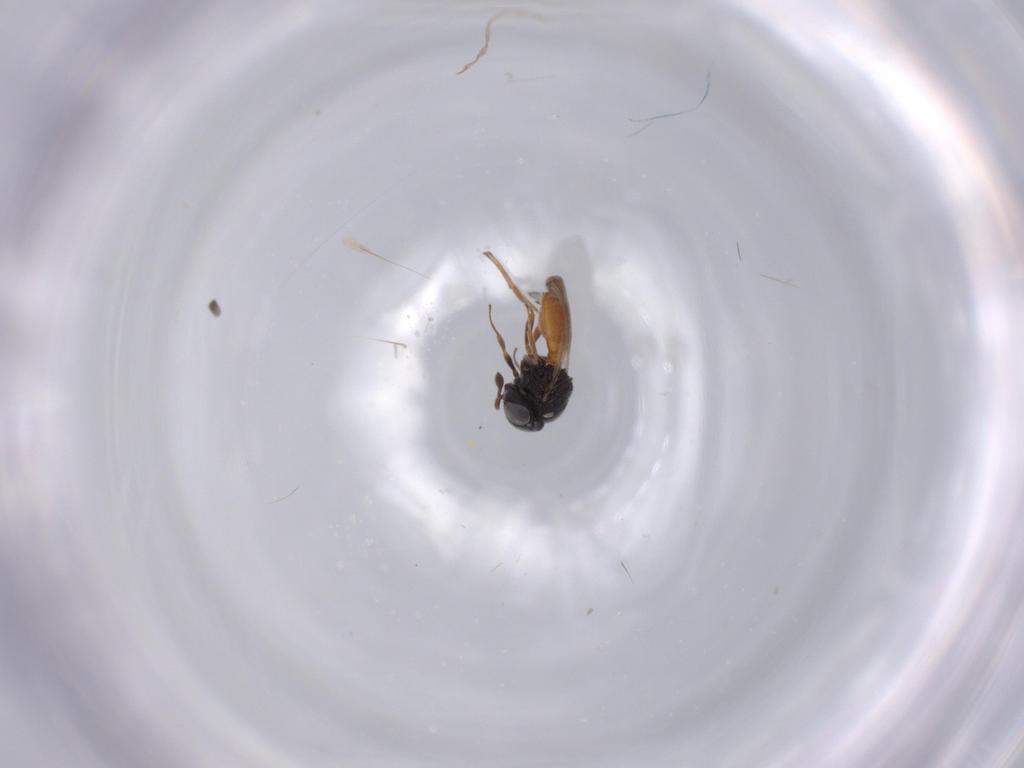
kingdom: Animalia
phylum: Arthropoda
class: Insecta
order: Hymenoptera
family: Scelionidae
